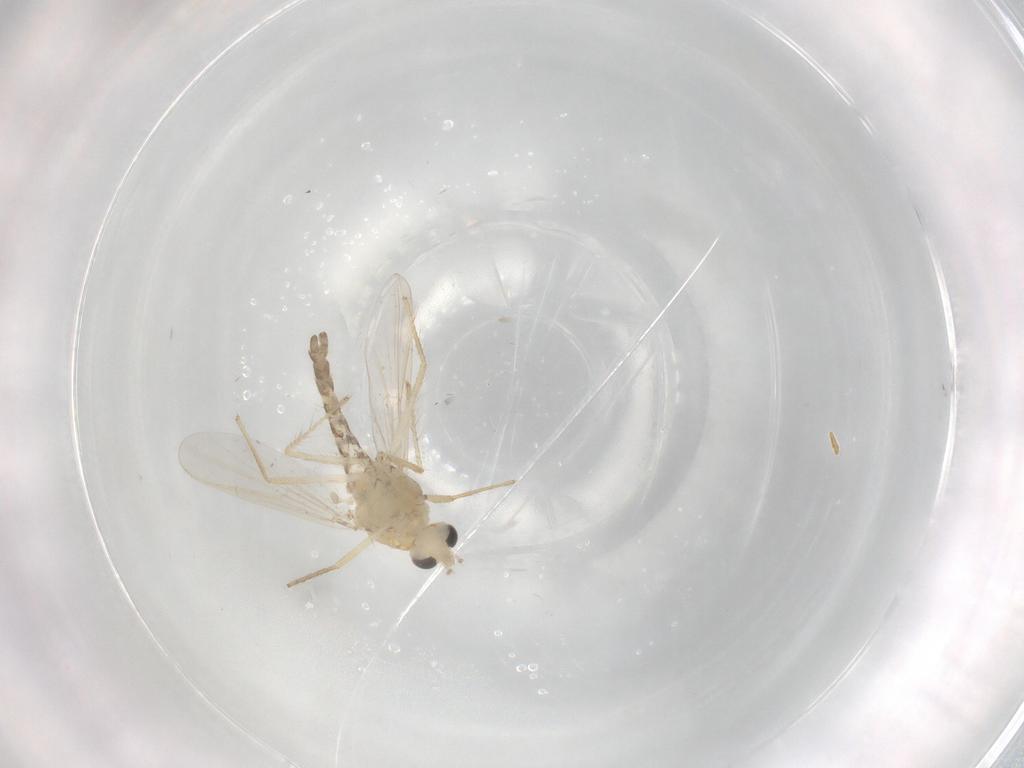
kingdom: Animalia
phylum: Arthropoda
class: Insecta
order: Diptera
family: Chironomidae
